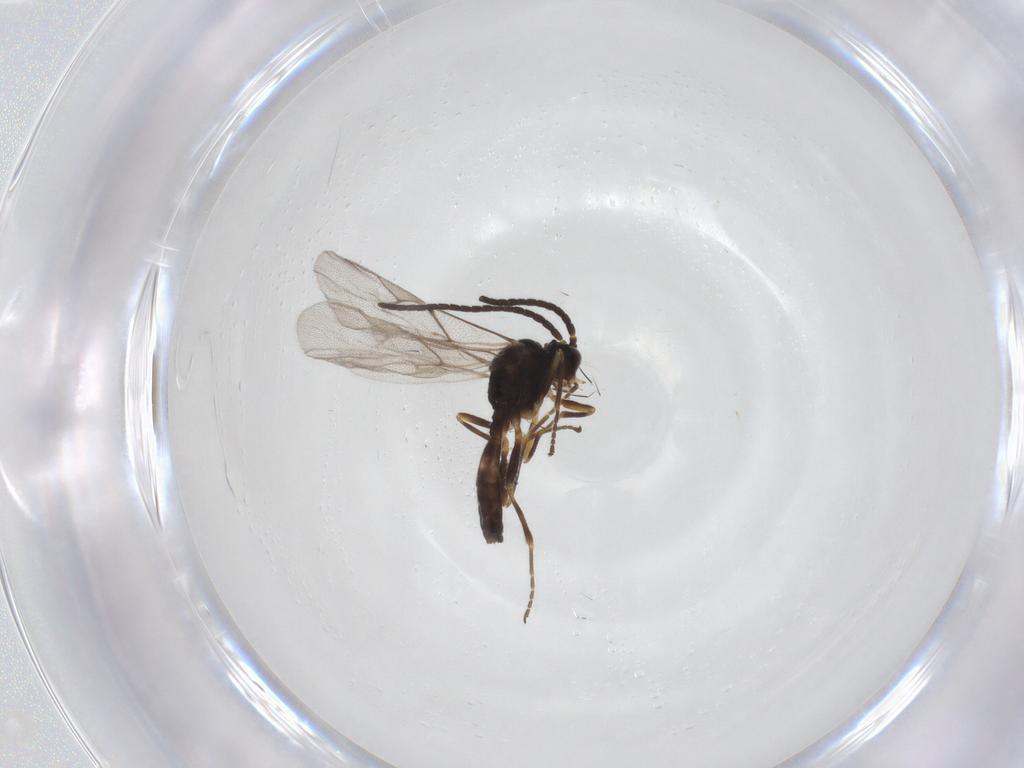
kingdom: Animalia
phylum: Arthropoda
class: Insecta
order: Hymenoptera
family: Braconidae
